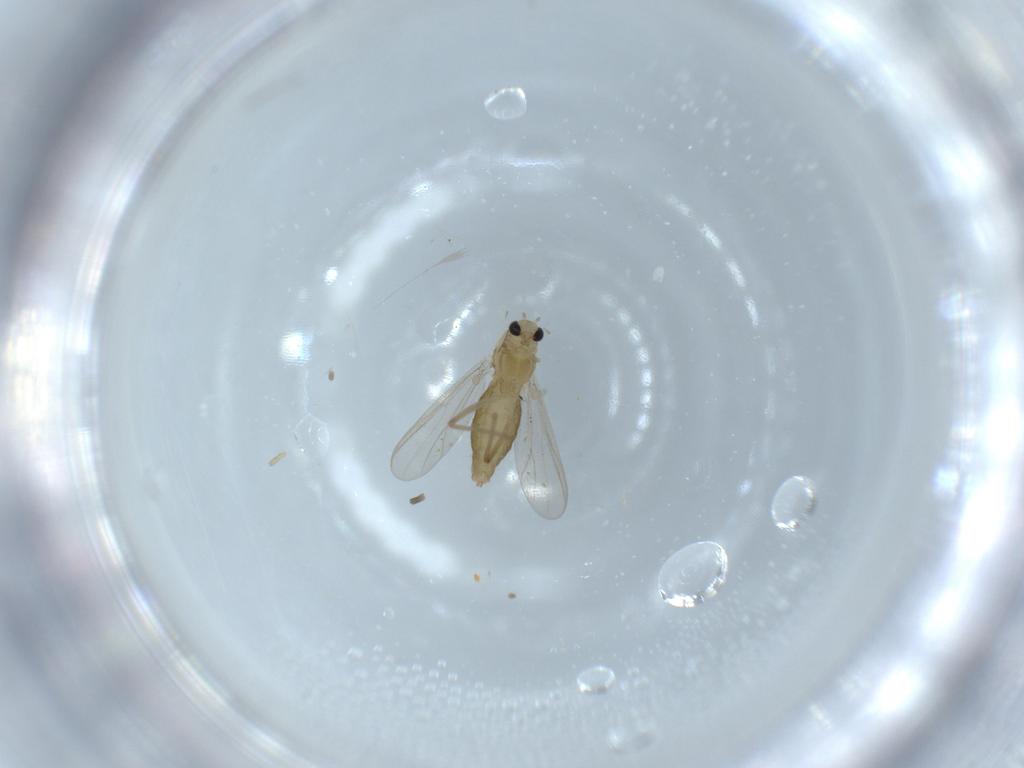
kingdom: Animalia
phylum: Arthropoda
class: Insecta
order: Diptera
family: Chironomidae
